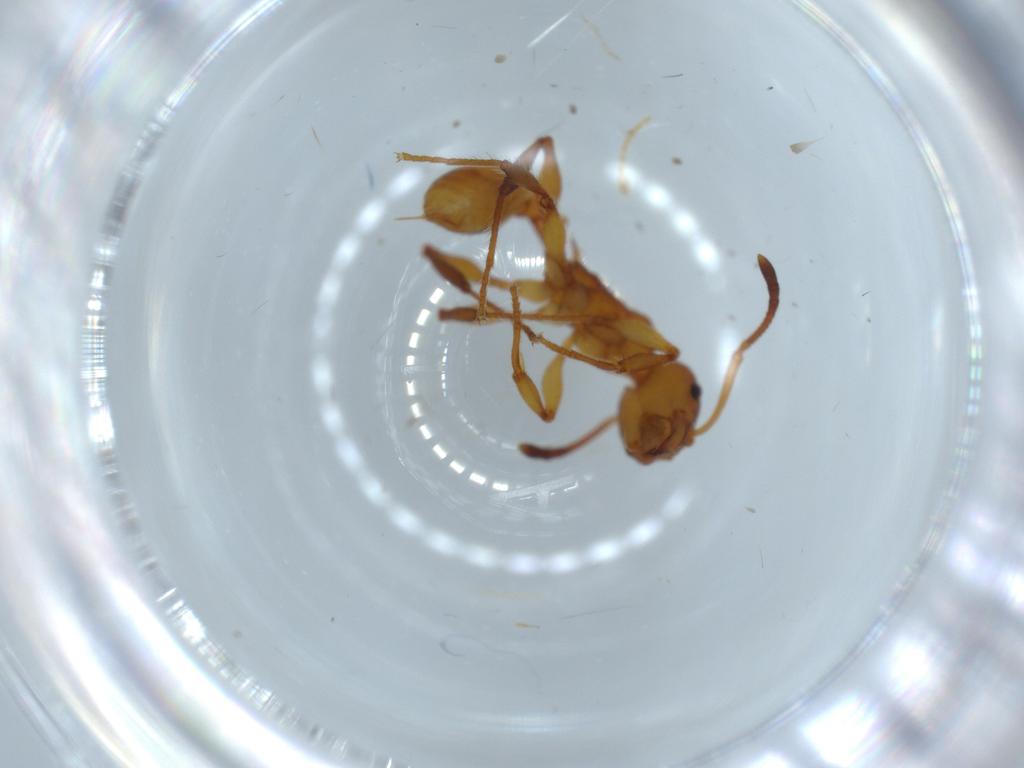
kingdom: Animalia
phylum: Arthropoda
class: Insecta
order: Hymenoptera
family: Formicidae
